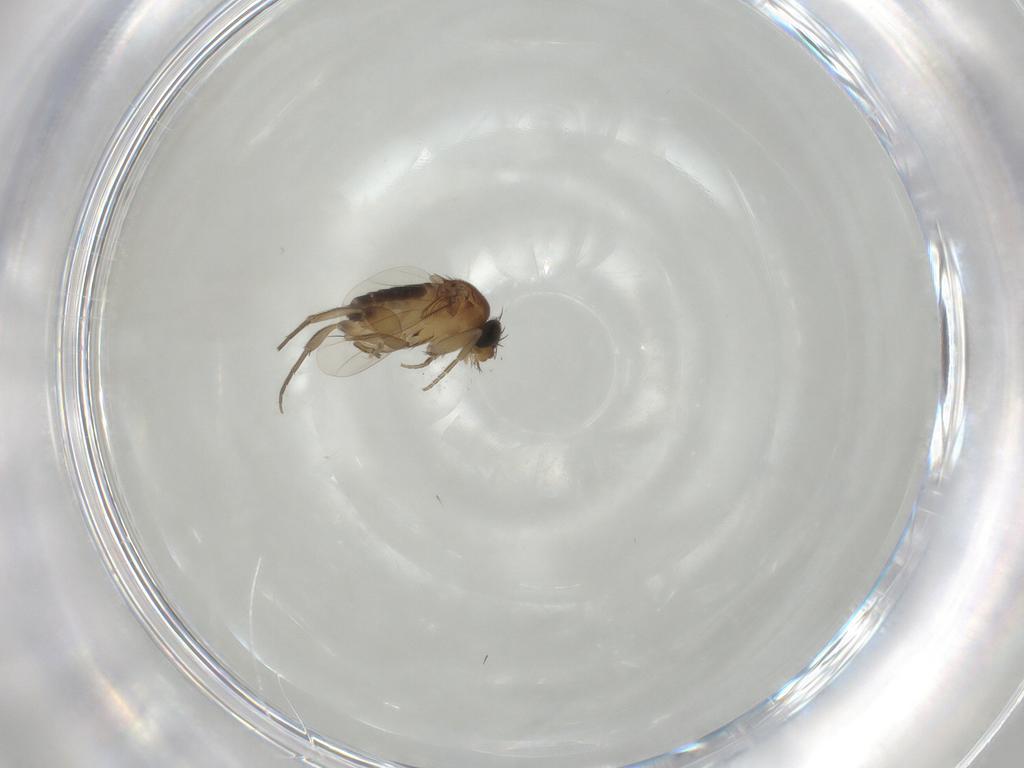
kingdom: Animalia
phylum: Arthropoda
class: Insecta
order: Diptera
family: Phoridae
